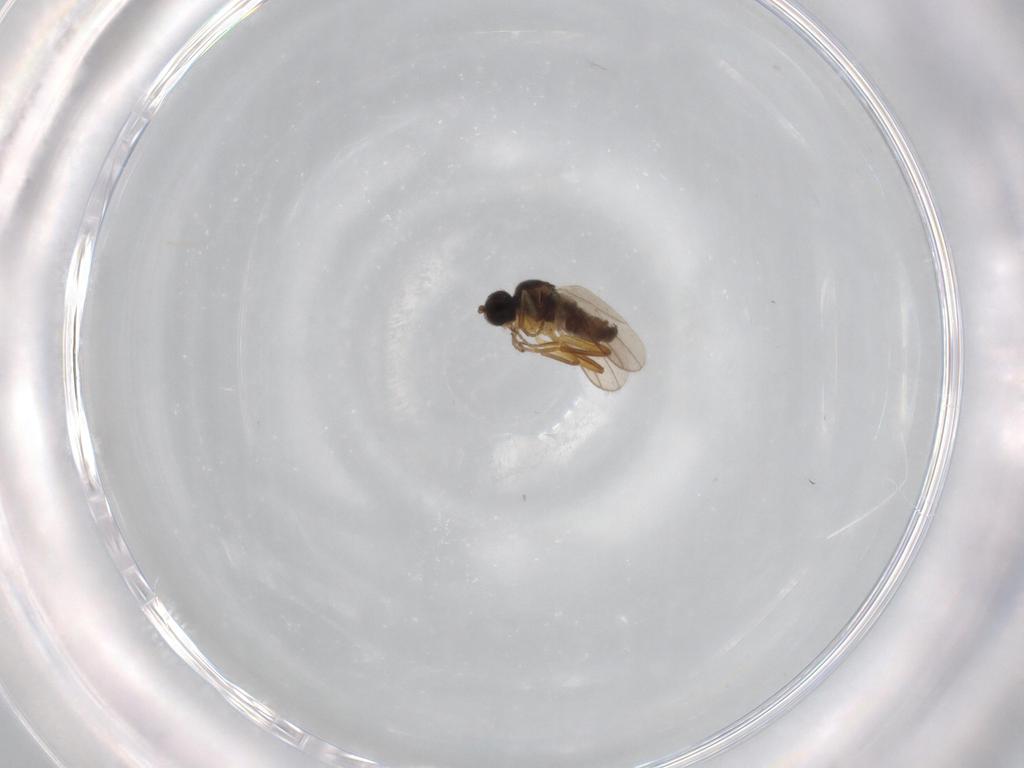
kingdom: Animalia
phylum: Arthropoda
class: Insecta
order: Diptera
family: Hybotidae
